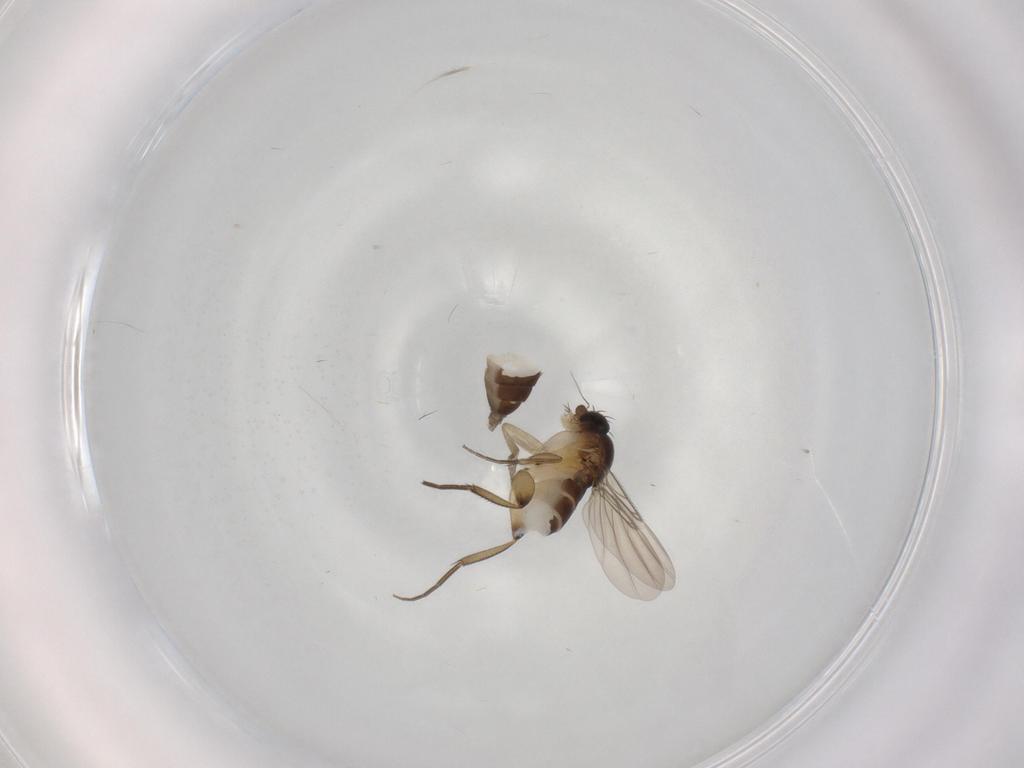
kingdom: Animalia
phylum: Arthropoda
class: Insecta
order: Diptera
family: Phoridae
